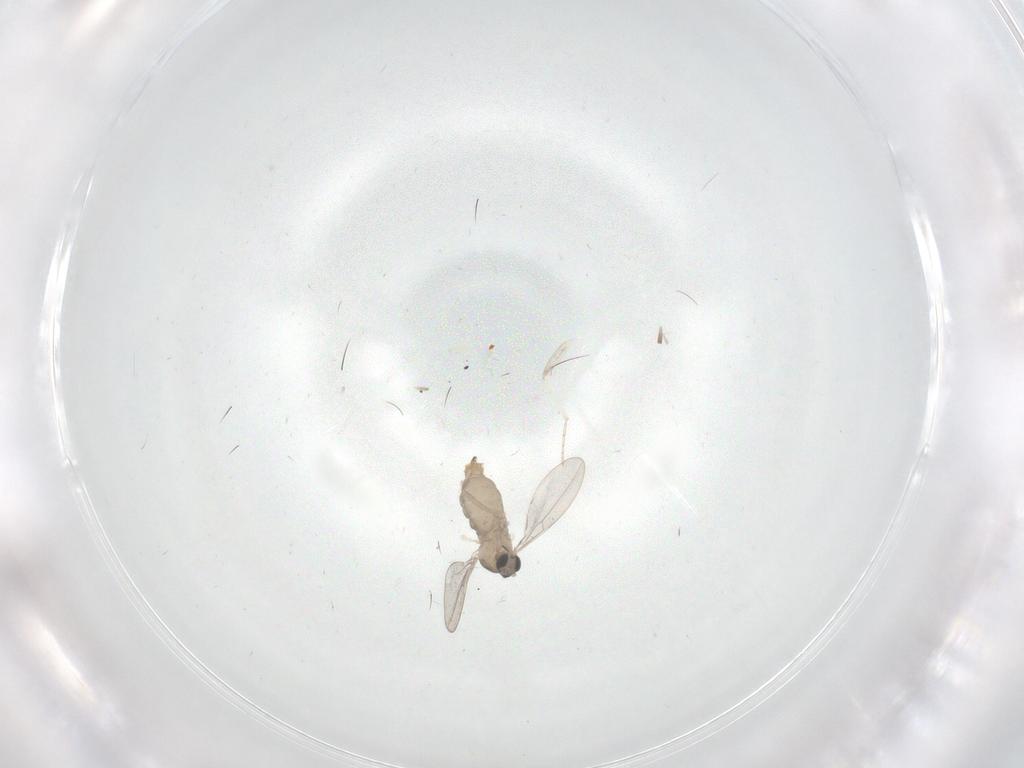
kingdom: Animalia
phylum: Arthropoda
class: Insecta
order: Diptera
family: Cecidomyiidae
